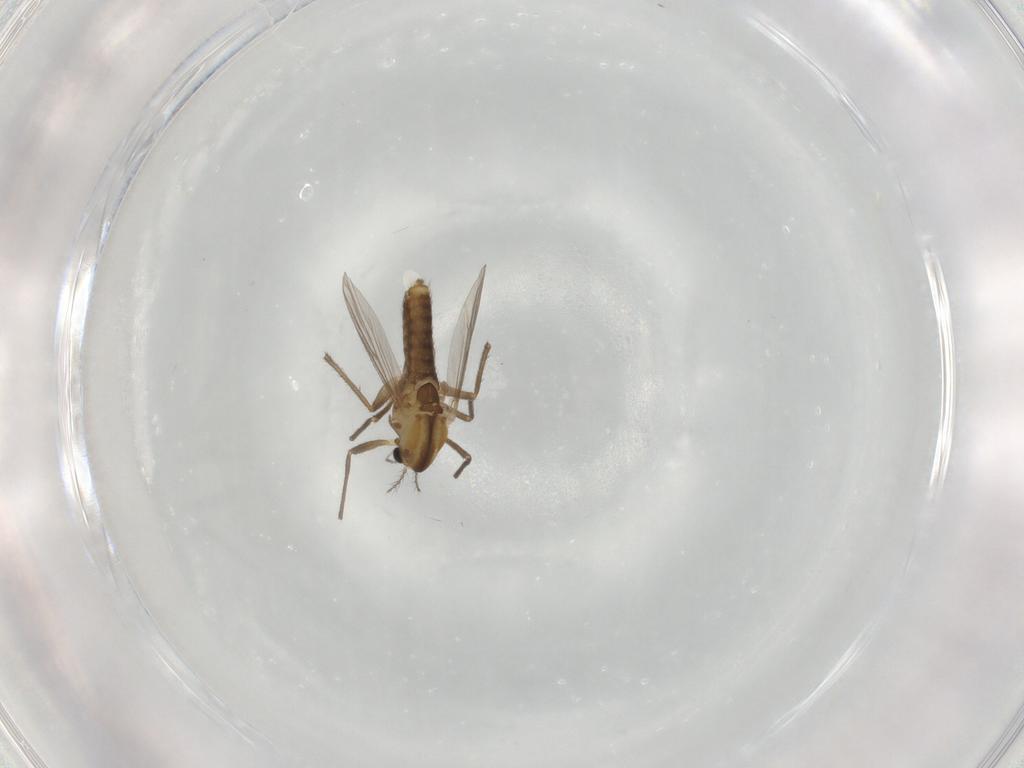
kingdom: Animalia
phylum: Arthropoda
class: Insecta
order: Diptera
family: Chironomidae
